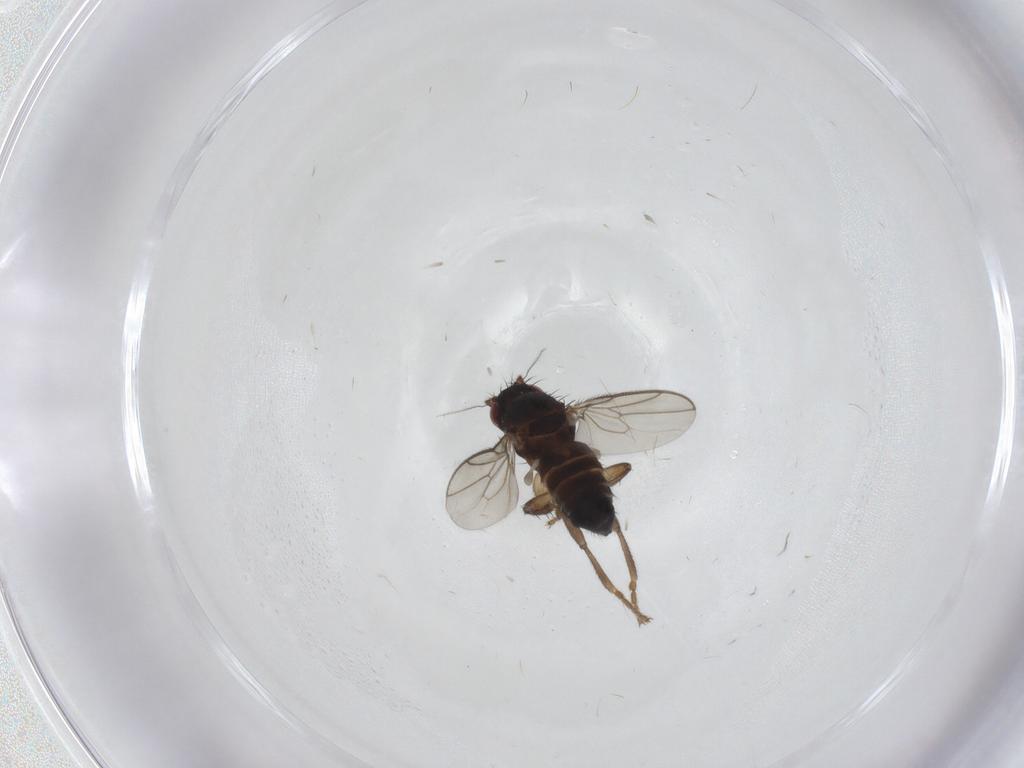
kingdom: Animalia
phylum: Arthropoda
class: Insecta
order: Diptera
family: Sphaeroceridae
